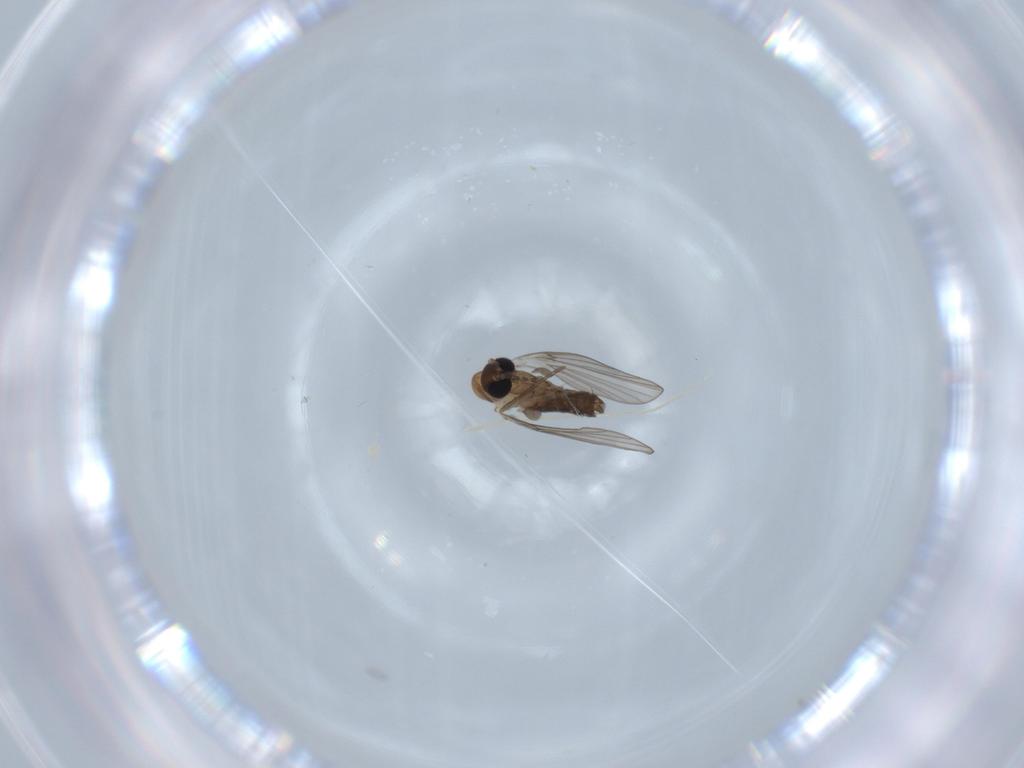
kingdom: Animalia
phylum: Arthropoda
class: Insecta
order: Diptera
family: Psychodidae
